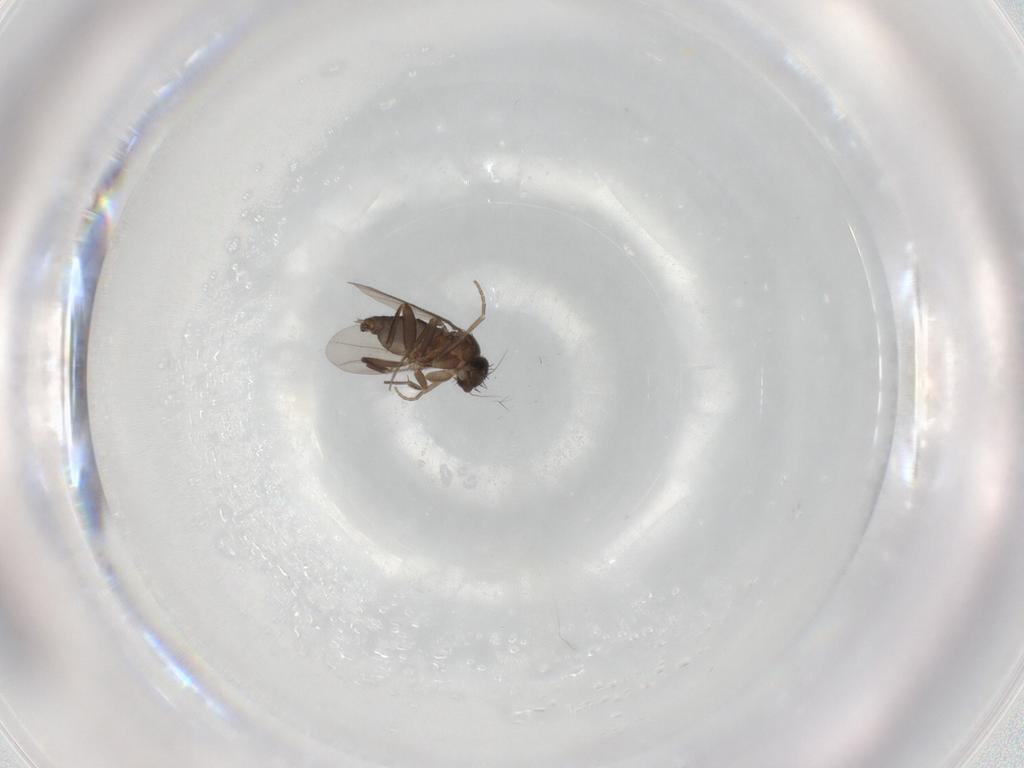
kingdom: Animalia
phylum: Arthropoda
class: Insecta
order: Diptera
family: Phoridae
